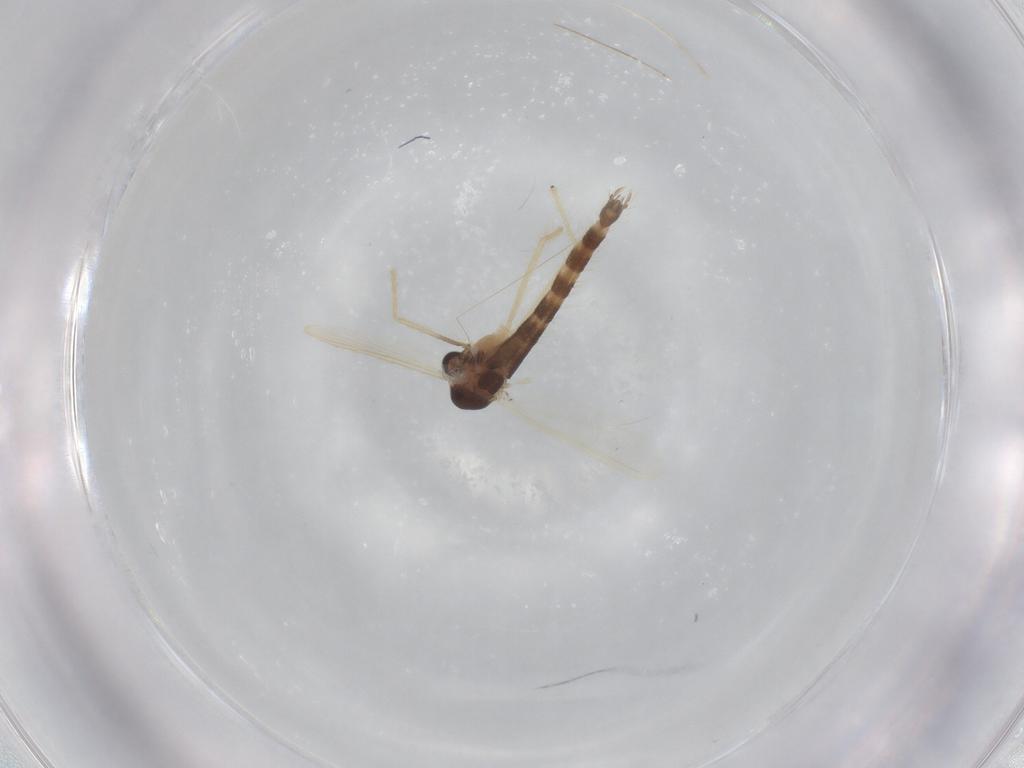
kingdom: Animalia
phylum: Arthropoda
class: Insecta
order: Diptera
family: Chironomidae
